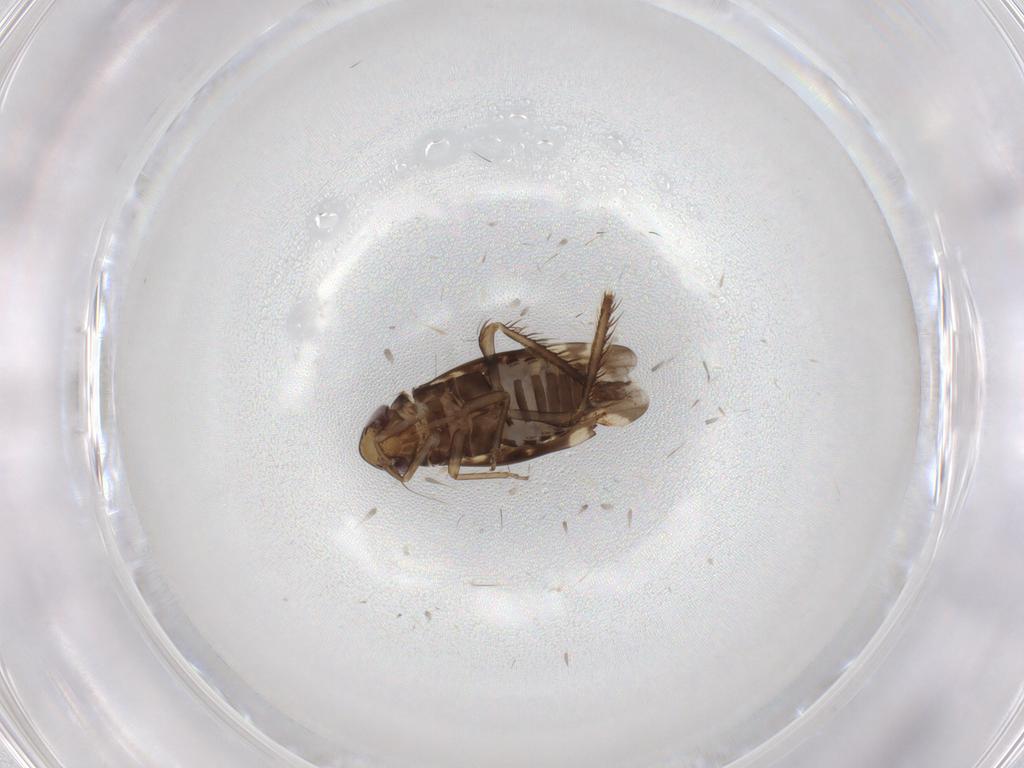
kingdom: Animalia
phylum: Arthropoda
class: Insecta
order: Hemiptera
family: Cicadellidae
